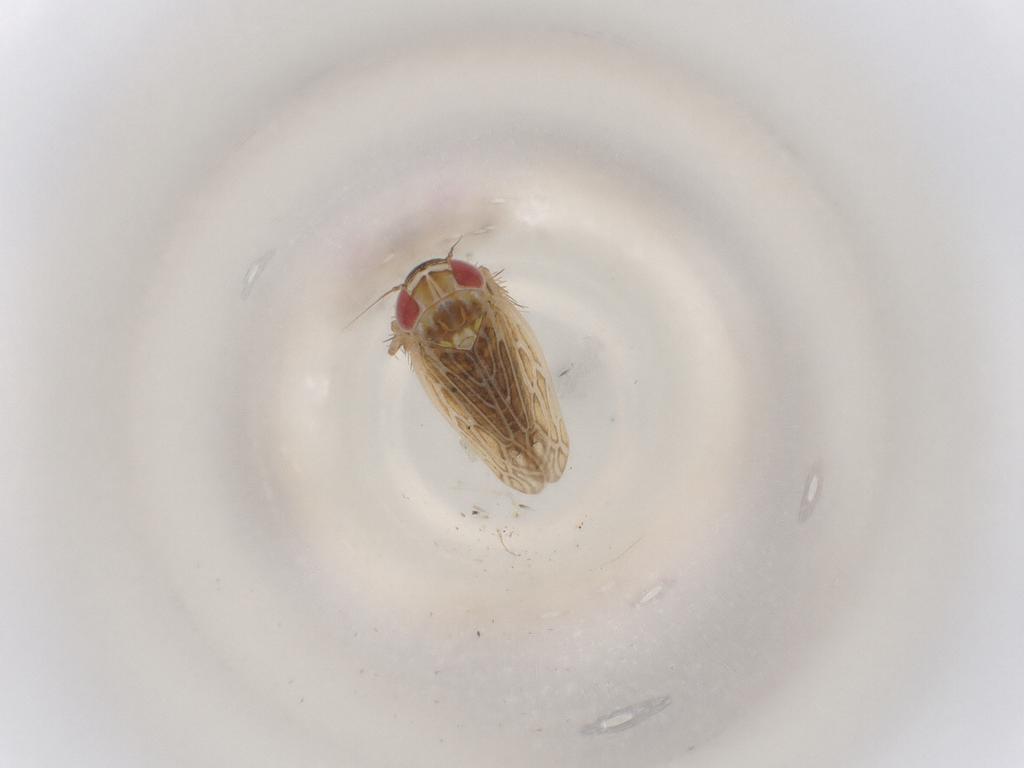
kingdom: Animalia
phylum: Arthropoda
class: Insecta
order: Hemiptera
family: Cicadellidae
